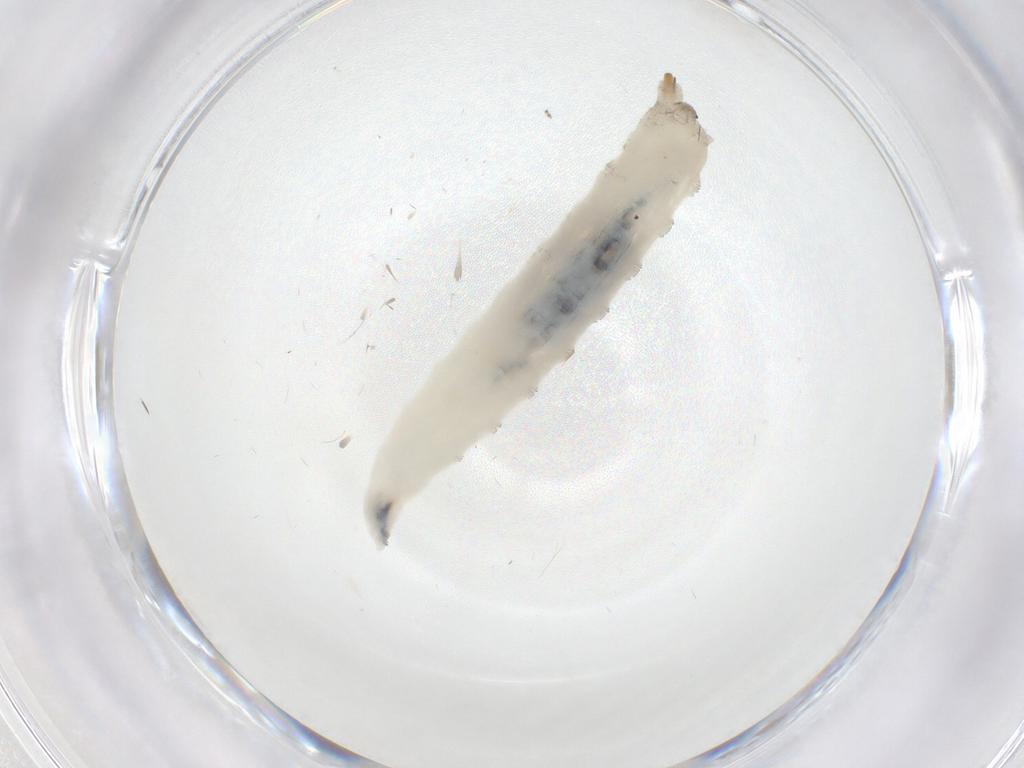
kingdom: Animalia
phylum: Arthropoda
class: Insecta
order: Diptera
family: Drosophilidae
